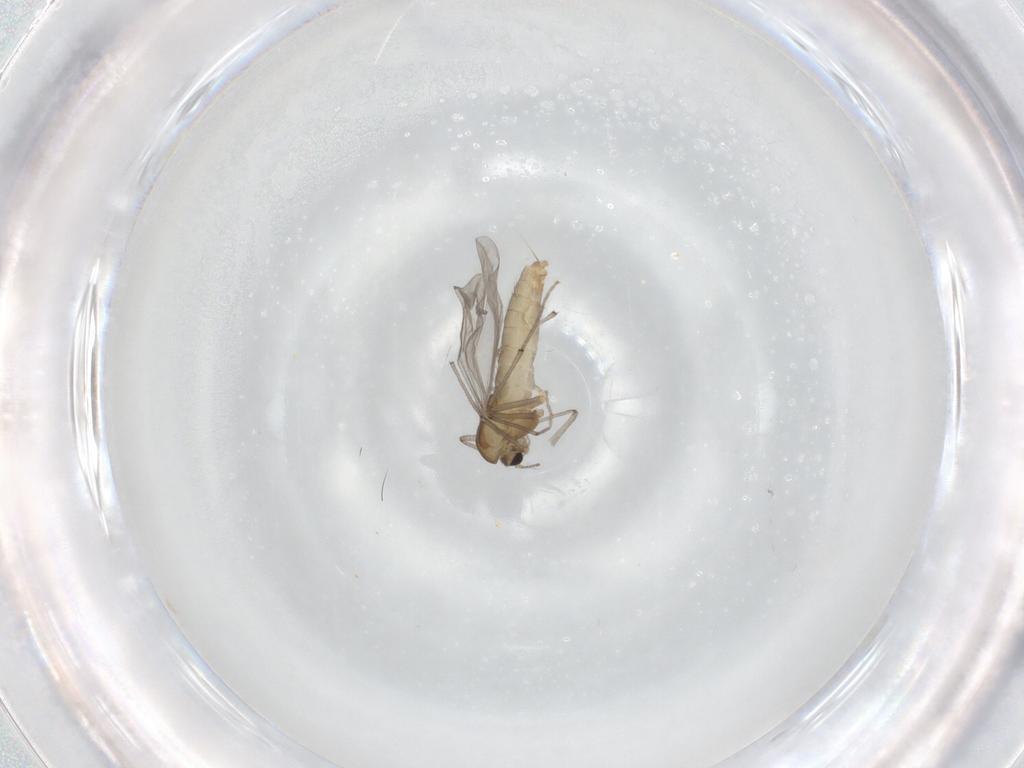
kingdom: Animalia
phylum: Arthropoda
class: Insecta
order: Diptera
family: Chironomidae
